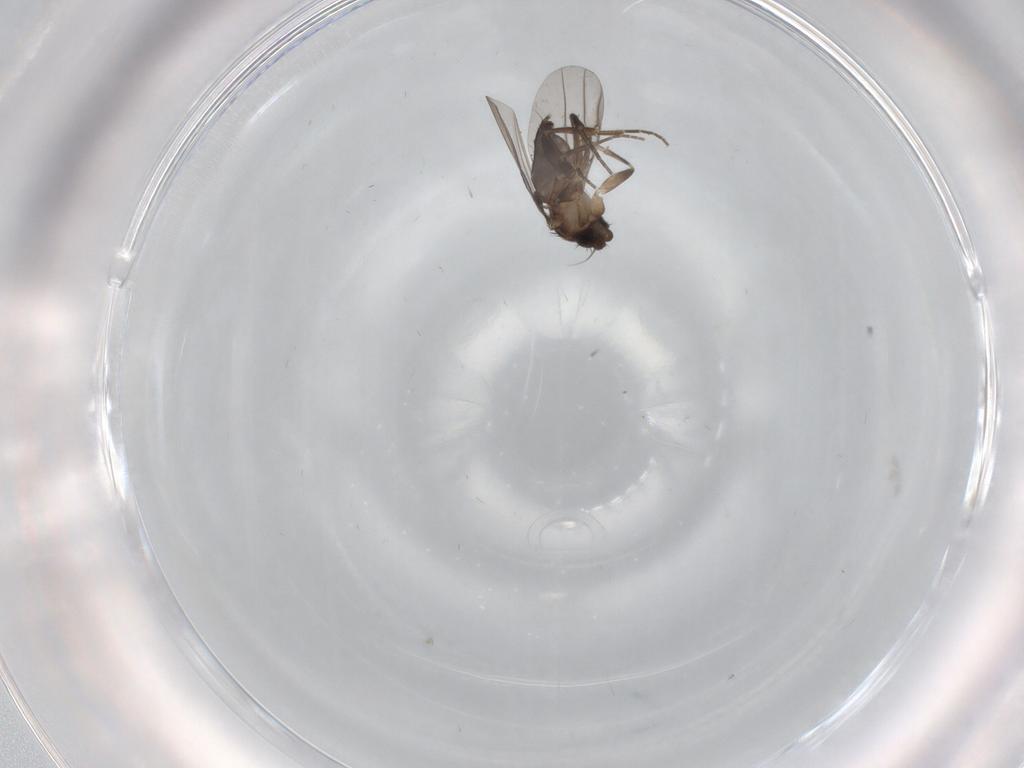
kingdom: Animalia
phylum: Arthropoda
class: Insecta
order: Diptera
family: Phoridae
